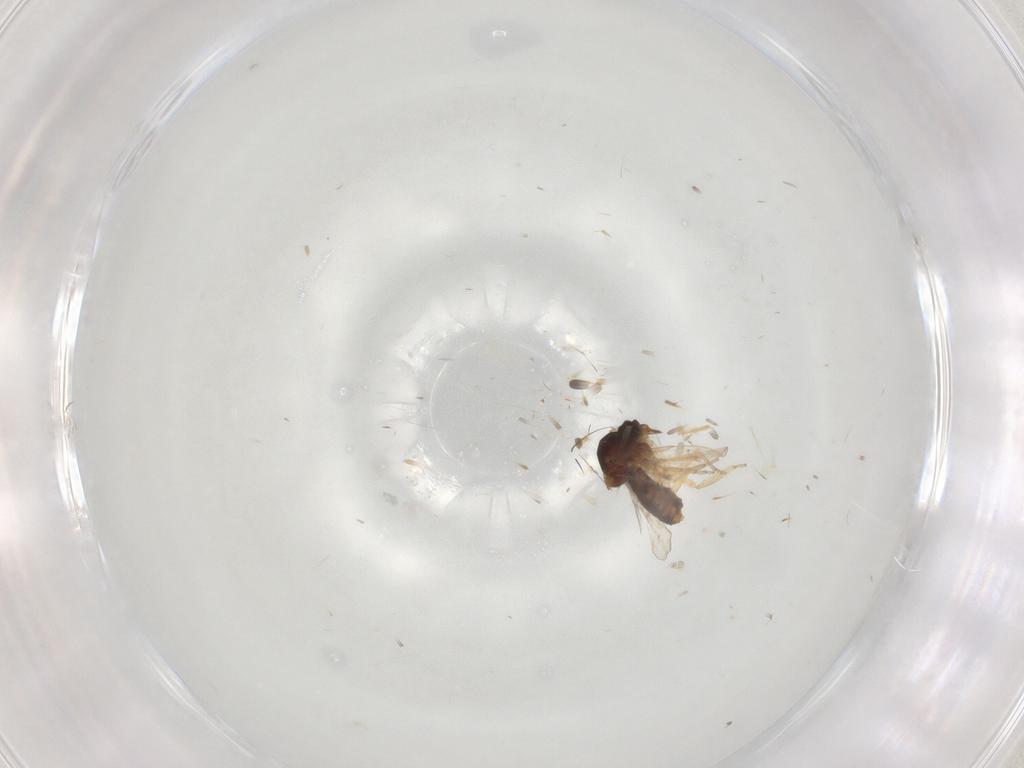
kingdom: Animalia
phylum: Arthropoda
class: Insecta
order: Diptera
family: Ceratopogonidae
